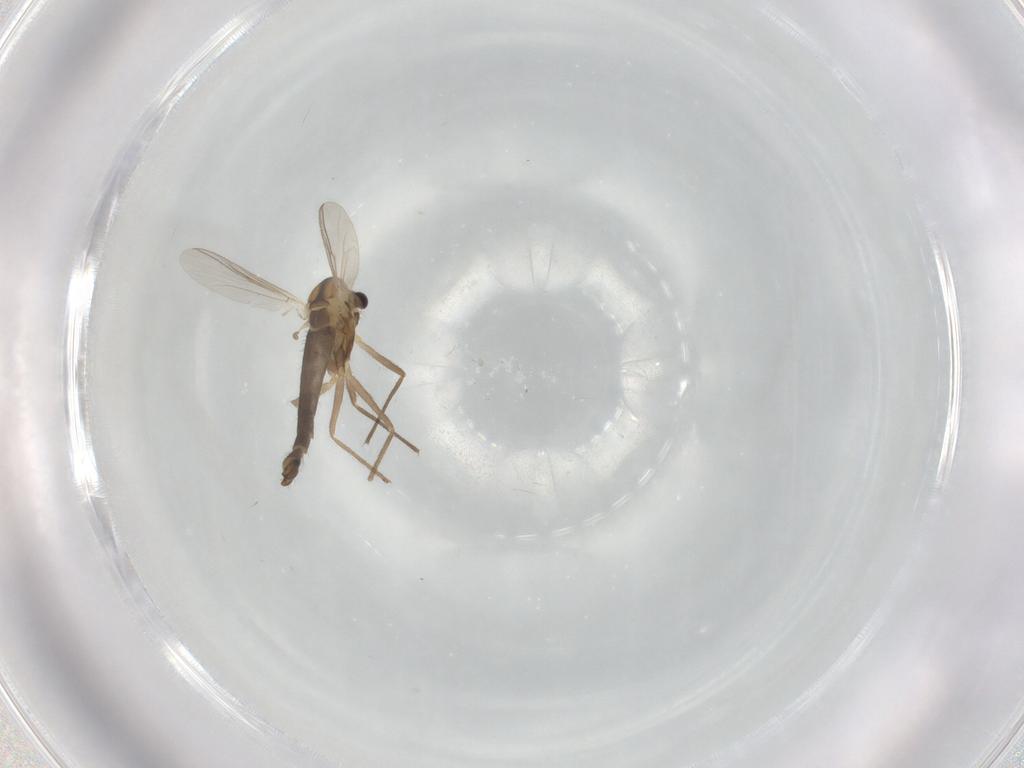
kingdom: Animalia
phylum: Arthropoda
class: Insecta
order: Diptera
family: Chironomidae
